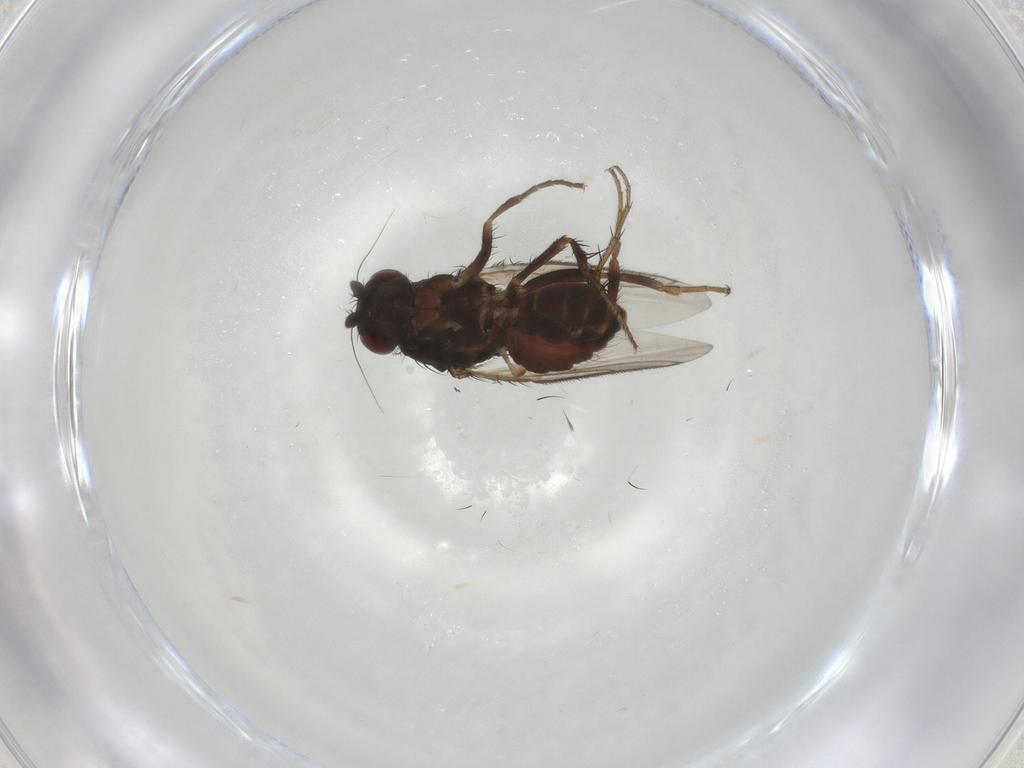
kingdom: Animalia
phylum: Arthropoda
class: Insecta
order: Diptera
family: Sphaeroceridae
